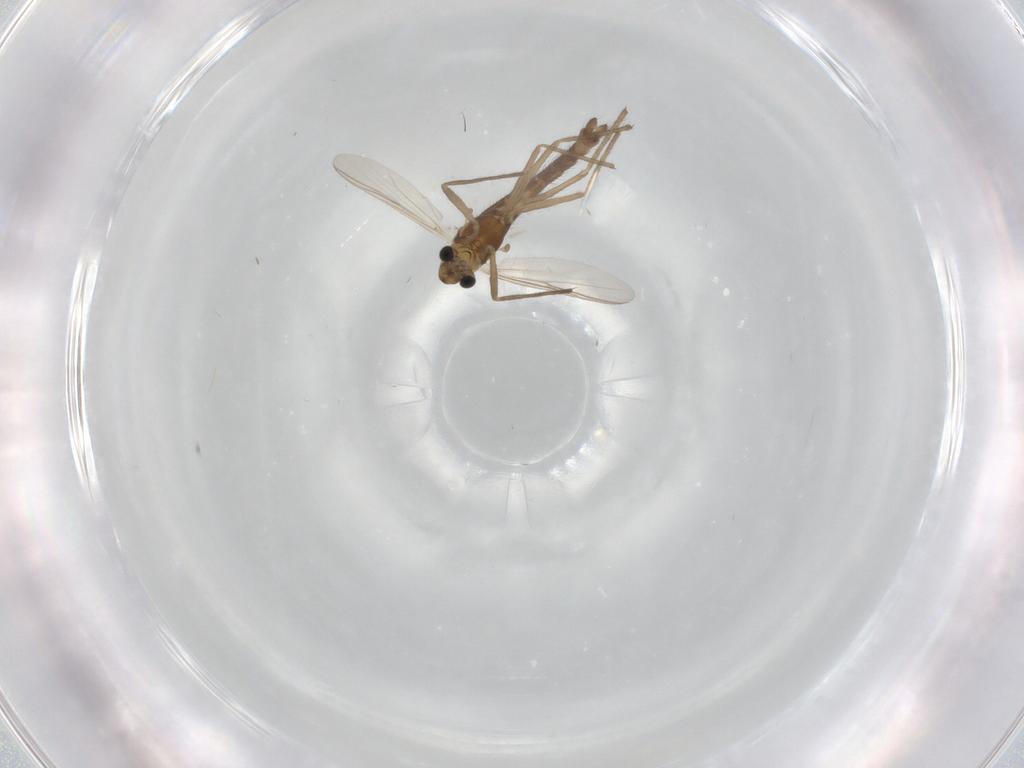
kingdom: Animalia
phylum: Arthropoda
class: Insecta
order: Diptera
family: Chironomidae
